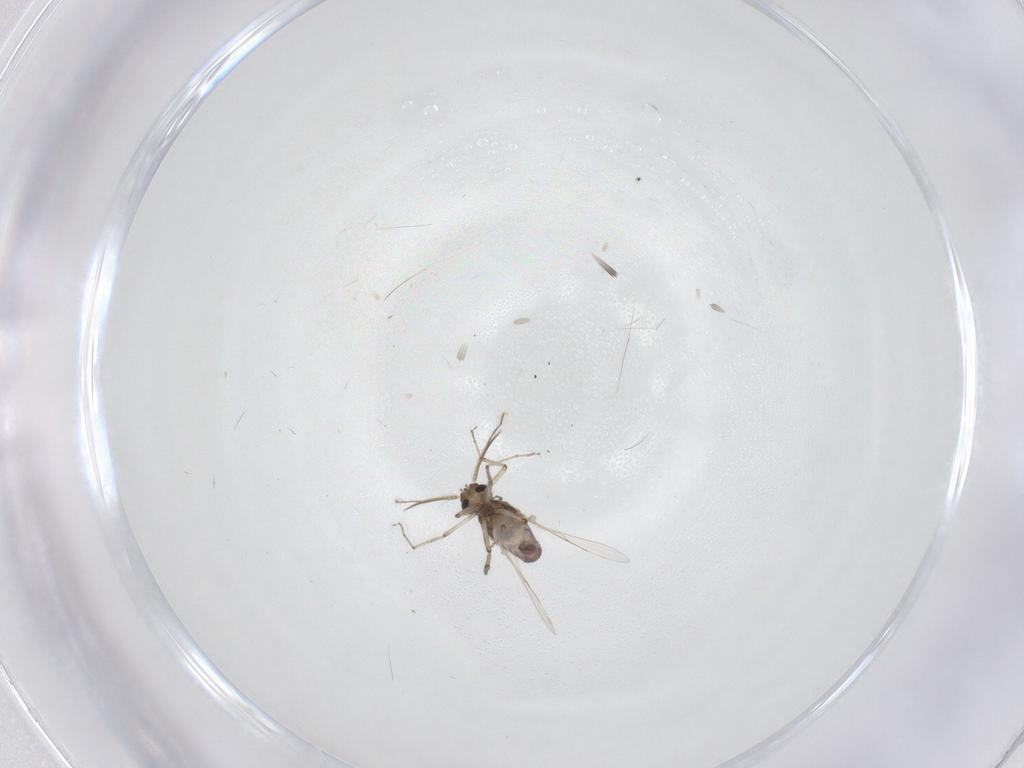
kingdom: Animalia
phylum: Arthropoda
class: Insecta
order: Diptera
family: Ceratopogonidae
